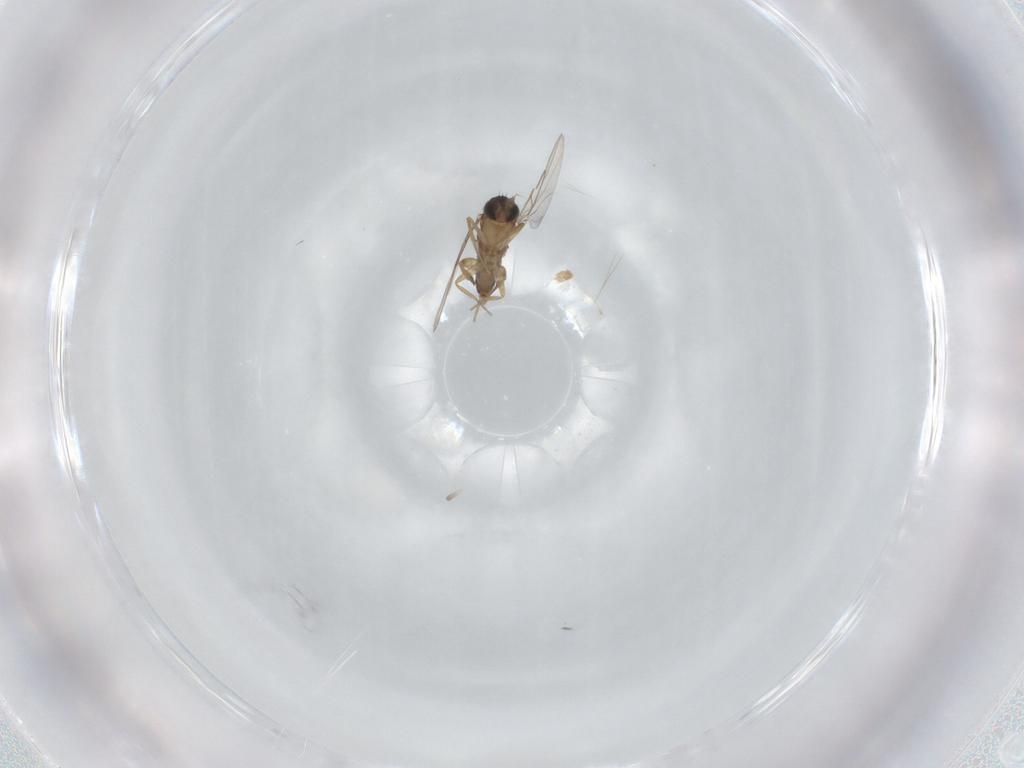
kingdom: Animalia
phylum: Arthropoda
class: Insecta
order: Diptera
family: Phoridae
